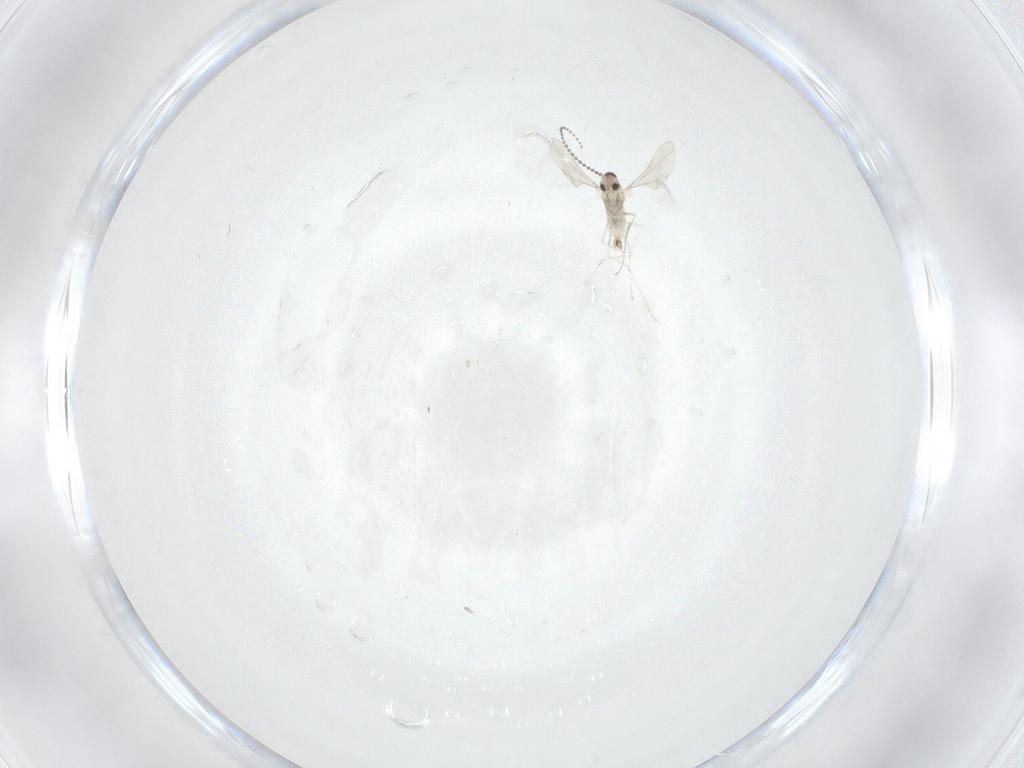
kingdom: Animalia
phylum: Arthropoda
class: Insecta
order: Diptera
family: Cecidomyiidae
